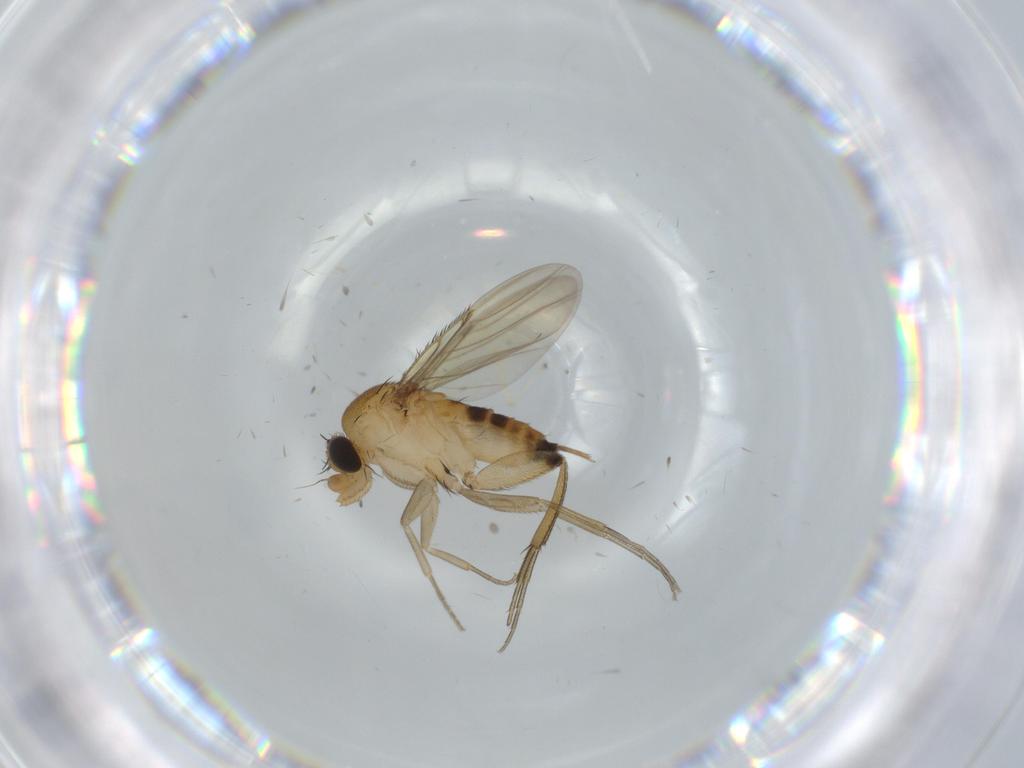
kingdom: Animalia
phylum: Arthropoda
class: Insecta
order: Diptera
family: Phoridae
